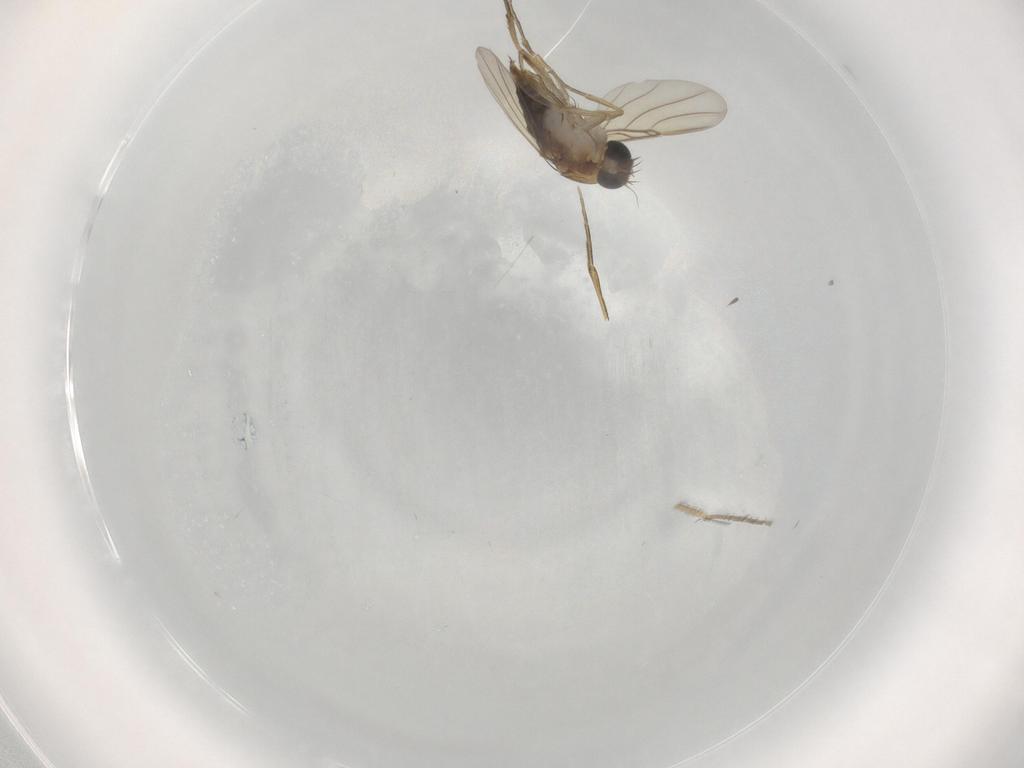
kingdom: Animalia
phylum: Arthropoda
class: Insecta
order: Diptera
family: Phoridae
